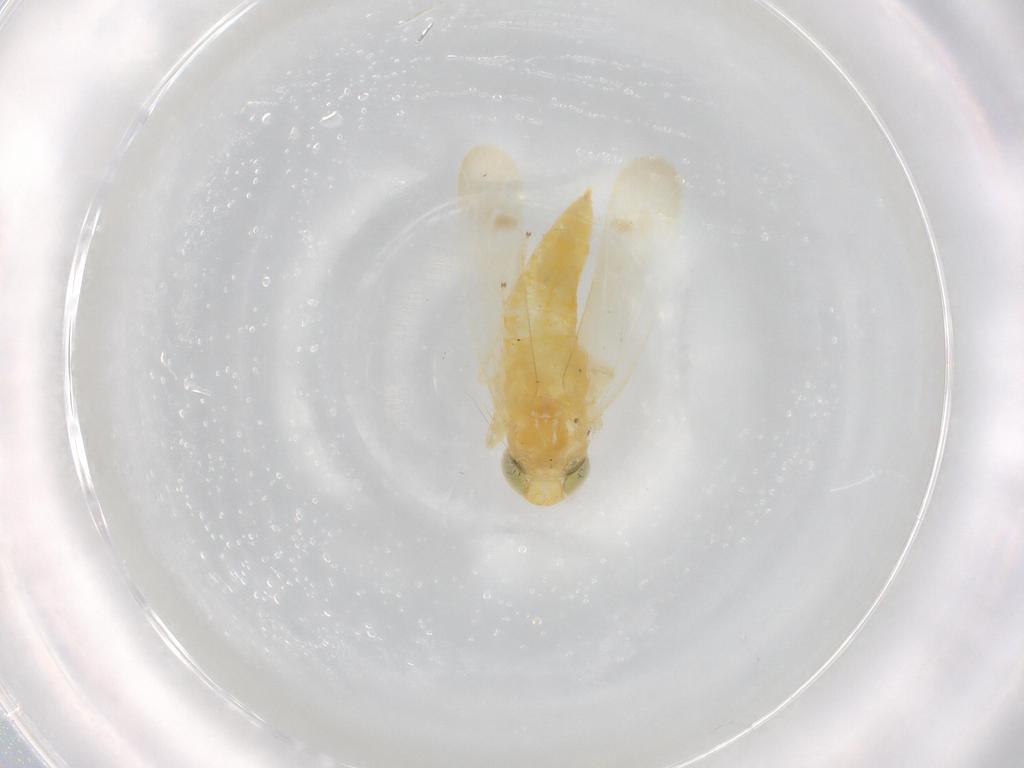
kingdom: Animalia
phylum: Arthropoda
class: Insecta
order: Hemiptera
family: Cicadellidae
